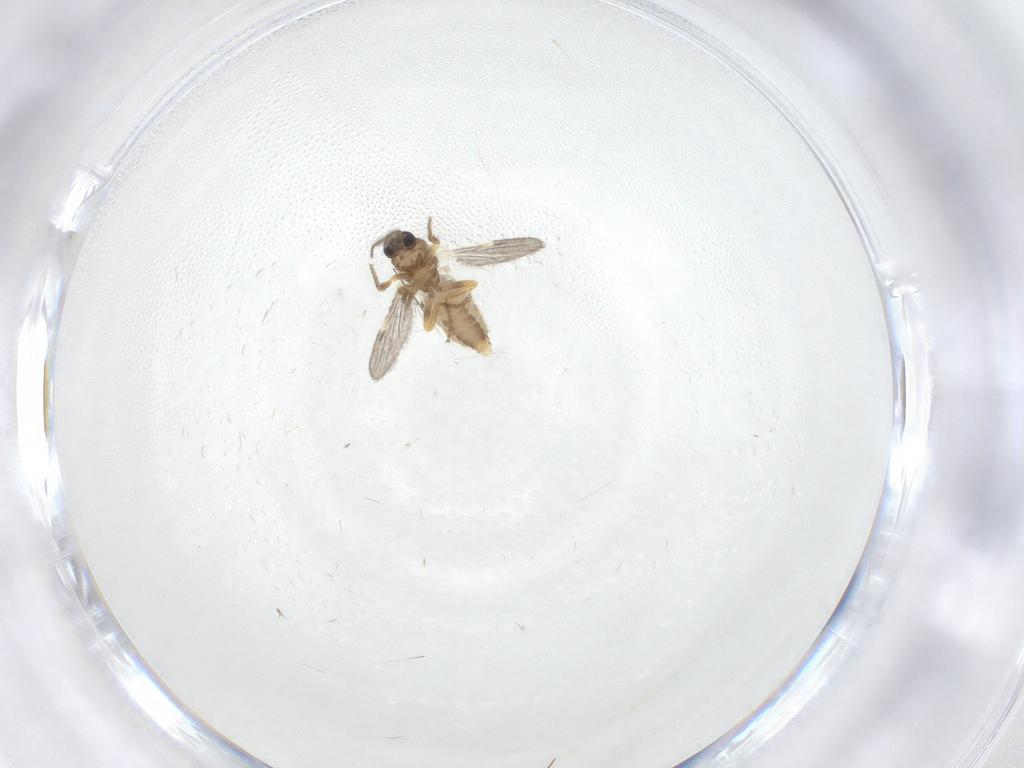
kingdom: Animalia
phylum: Arthropoda
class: Insecta
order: Diptera
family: Ceratopogonidae
